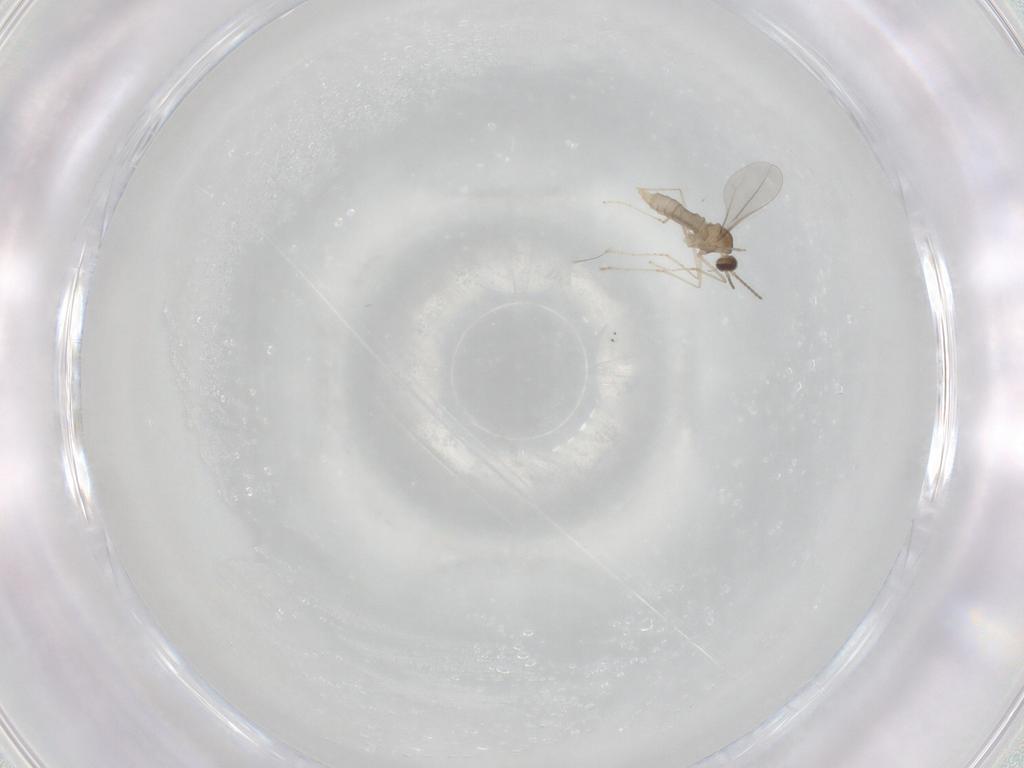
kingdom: Animalia
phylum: Arthropoda
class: Insecta
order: Diptera
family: Cecidomyiidae
